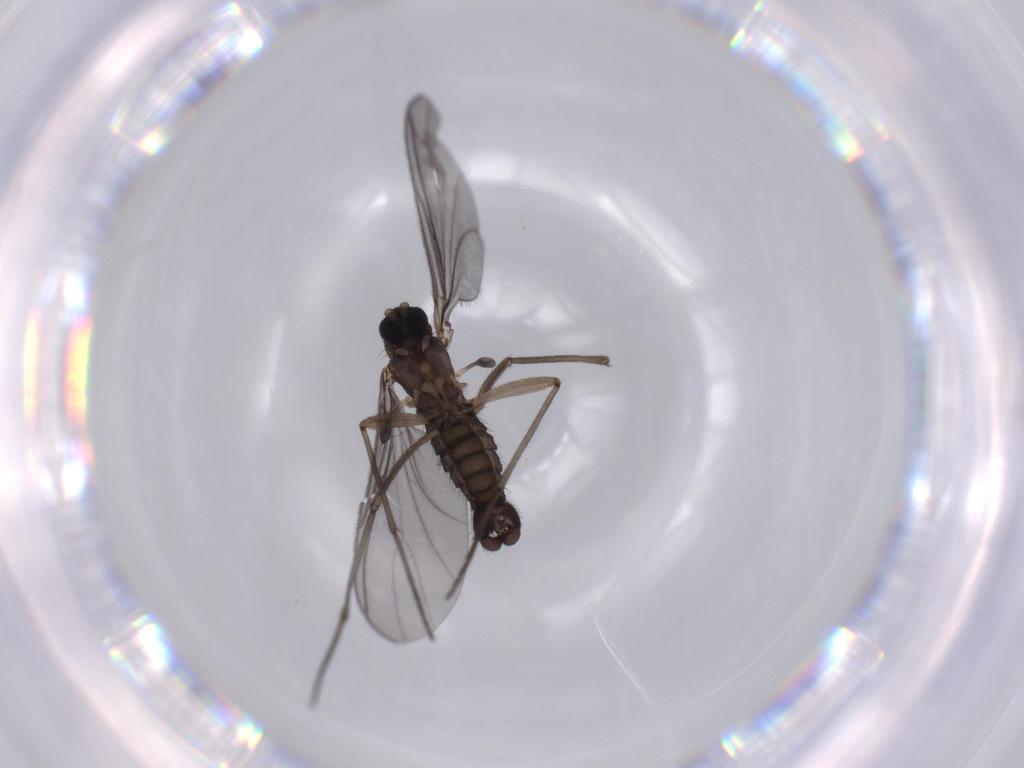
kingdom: Animalia
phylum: Arthropoda
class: Insecta
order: Diptera
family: Sciaridae
